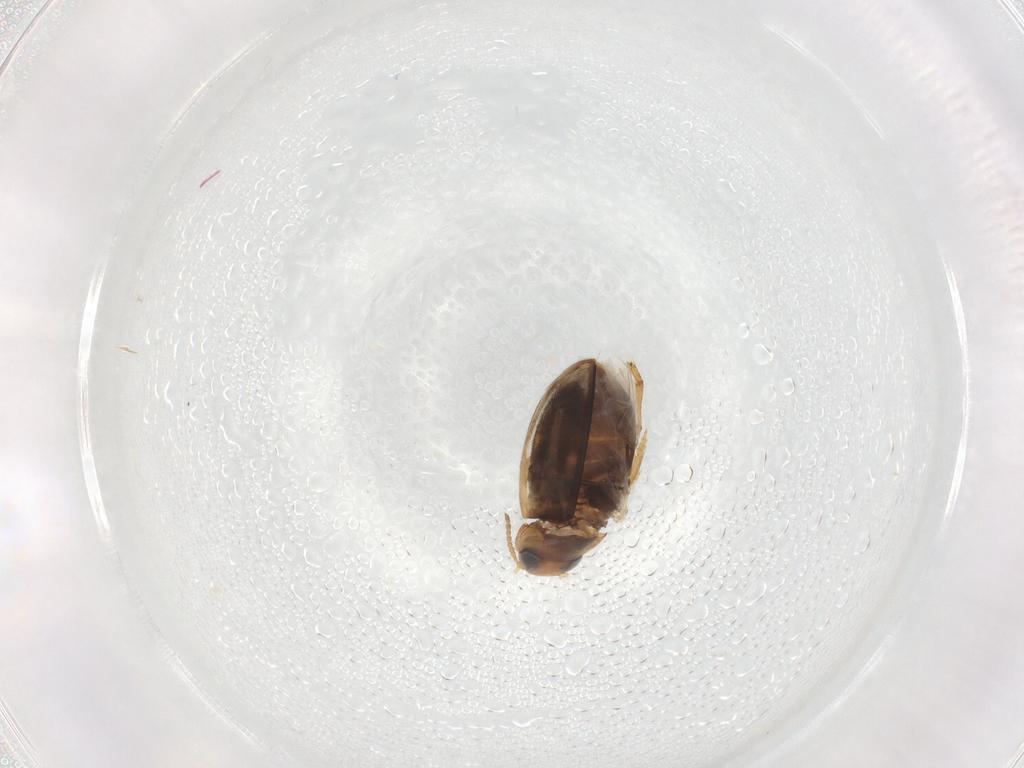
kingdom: Animalia
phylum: Arthropoda
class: Insecta
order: Coleoptera
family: Dytiscidae
